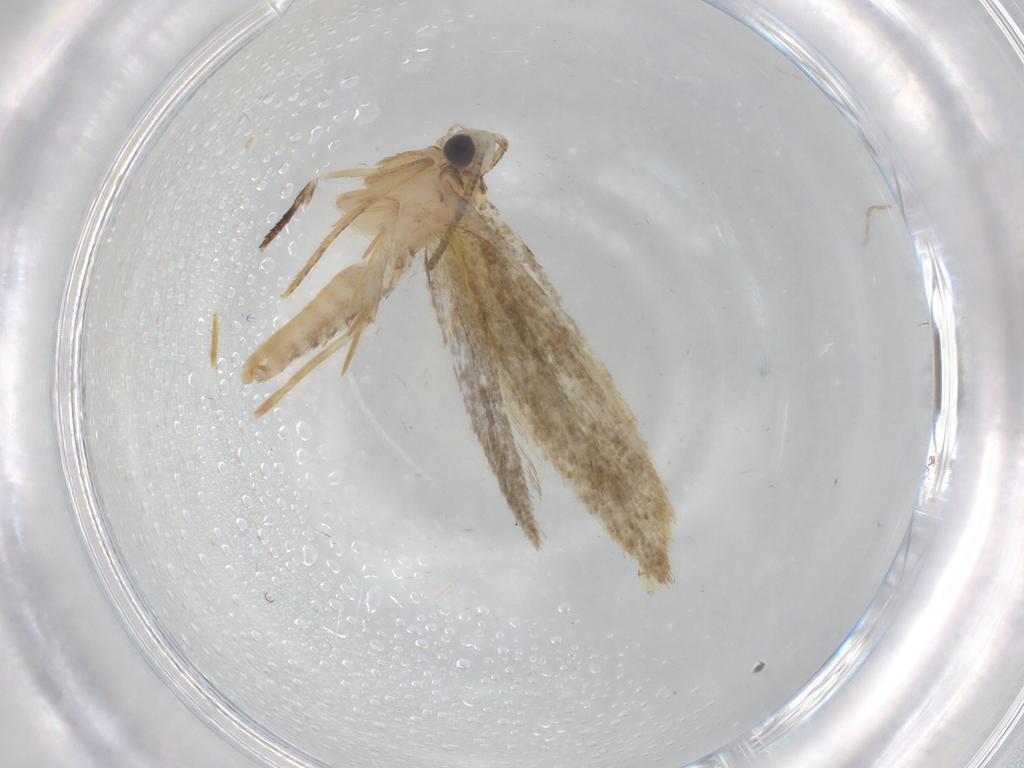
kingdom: Animalia
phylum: Arthropoda
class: Insecta
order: Lepidoptera
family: Tineidae
